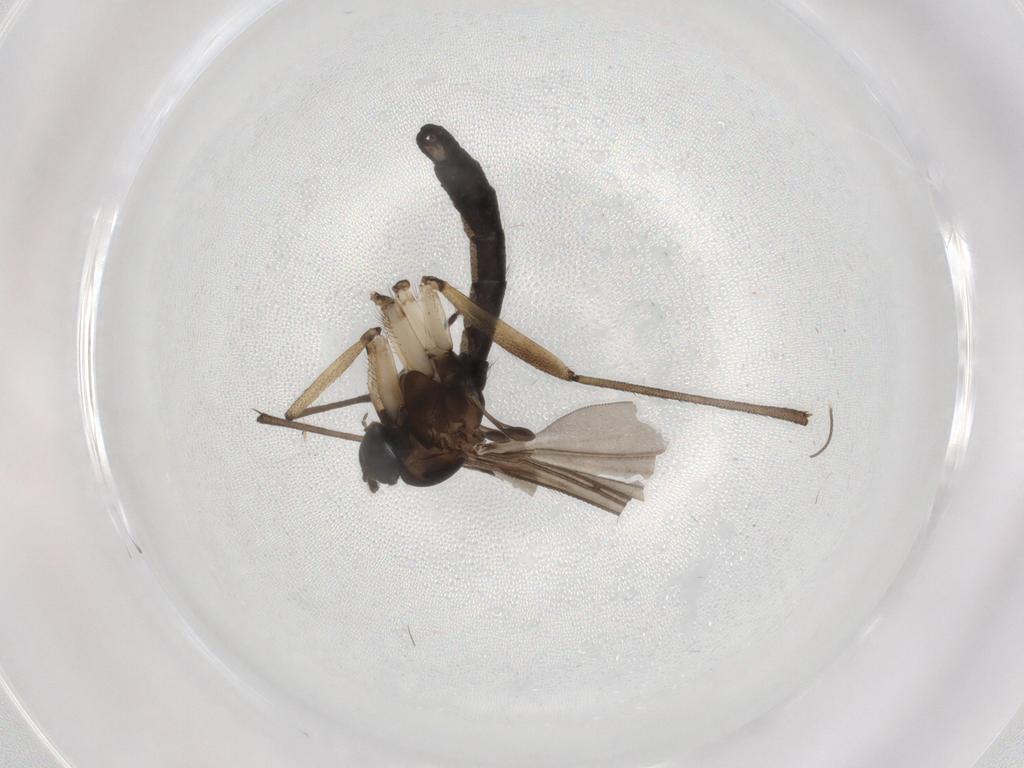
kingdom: Animalia
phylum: Arthropoda
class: Insecta
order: Diptera
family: Sciaridae
